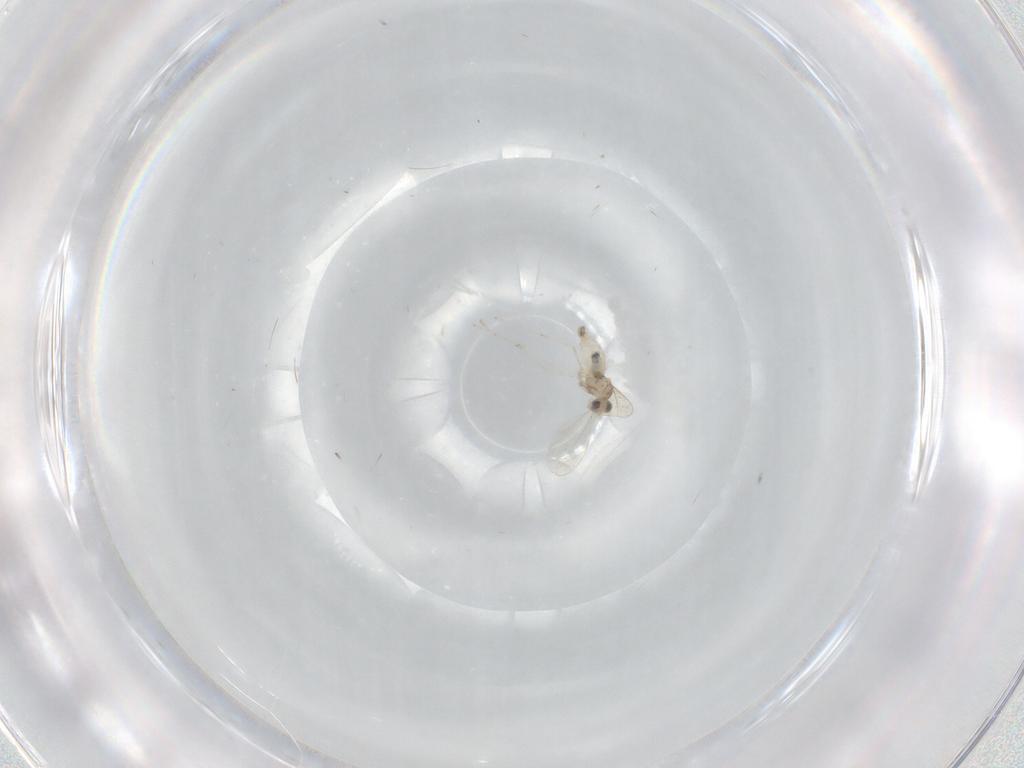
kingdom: Animalia
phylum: Arthropoda
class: Insecta
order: Diptera
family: Cecidomyiidae
